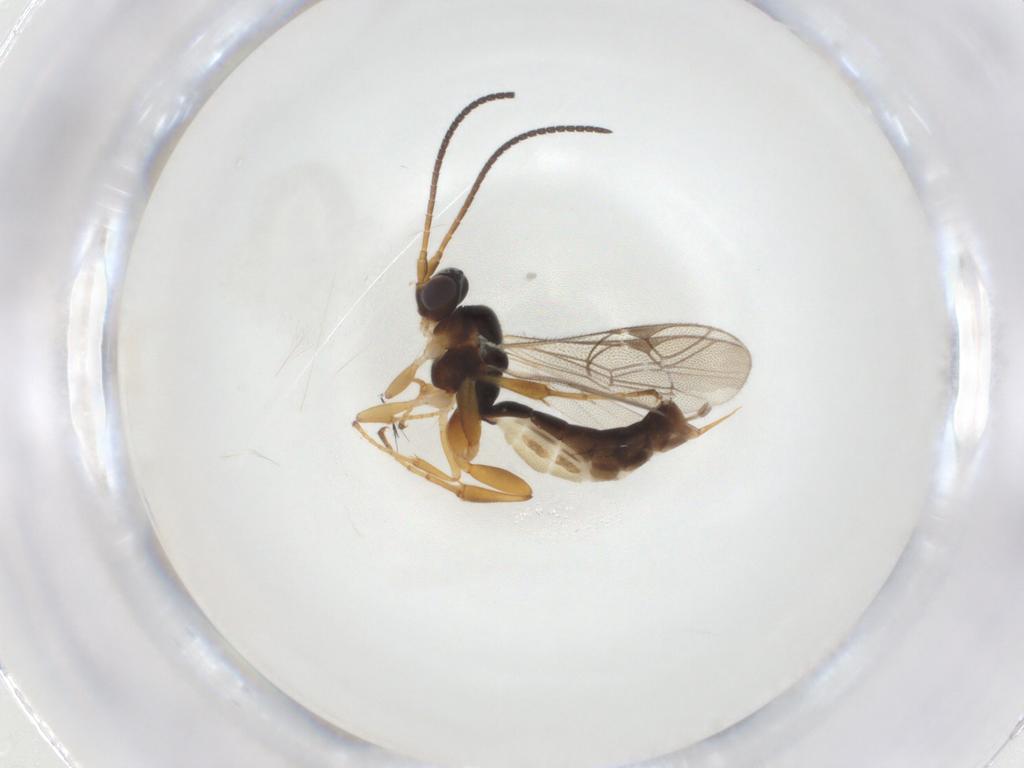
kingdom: Animalia
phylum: Arthropoda
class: Insecta
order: Hymenoptera
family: Ichneumonidae
